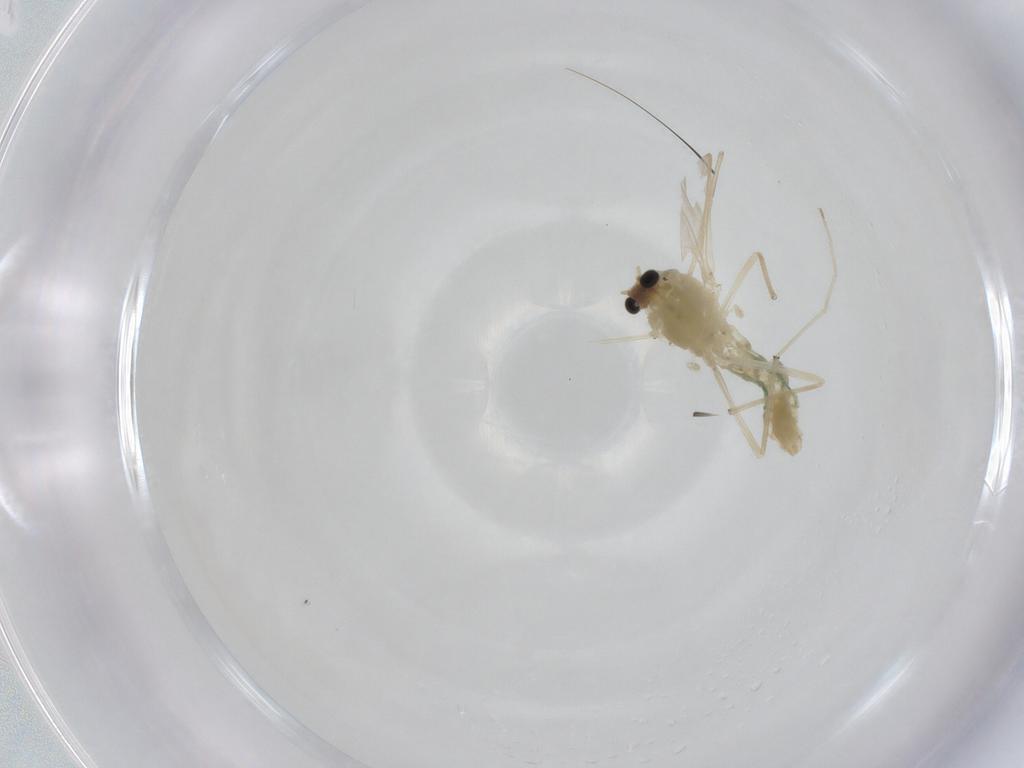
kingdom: Animalia
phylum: Arthropoda
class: Insecta
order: Diptera
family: Chironomidae
